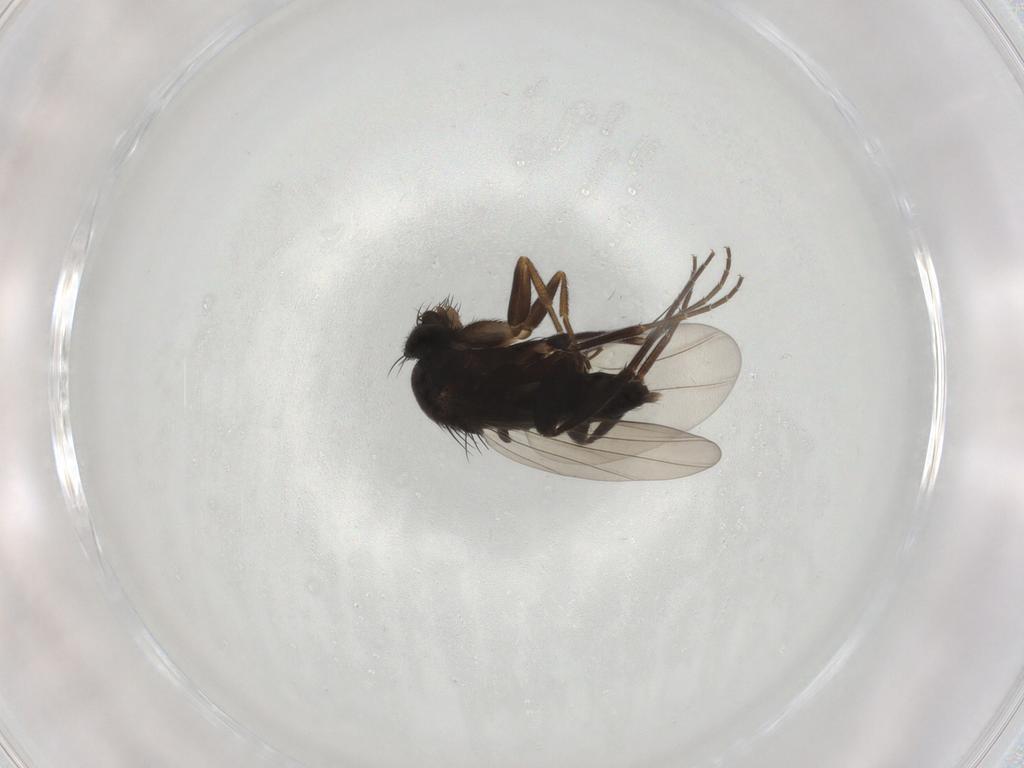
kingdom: Animalia
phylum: Arthropoda
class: Insecta
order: Diptera
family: Phoridae
